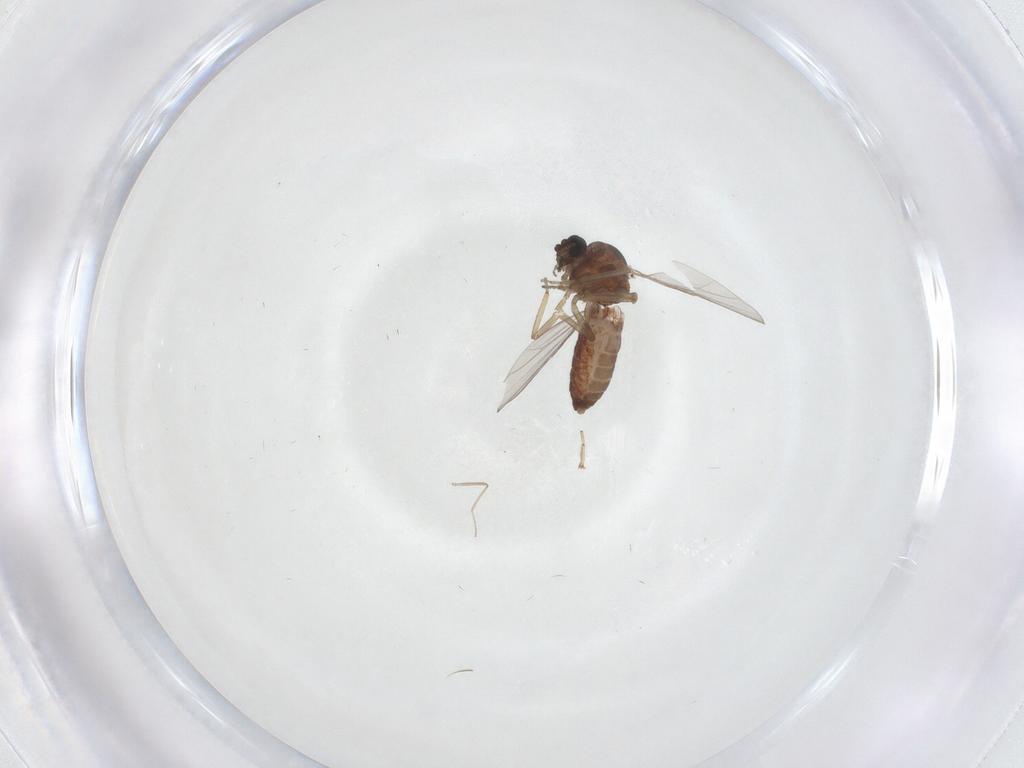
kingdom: Animalia
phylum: Arthropoda
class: Insecta
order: Diptera
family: Ceratopogonidae
